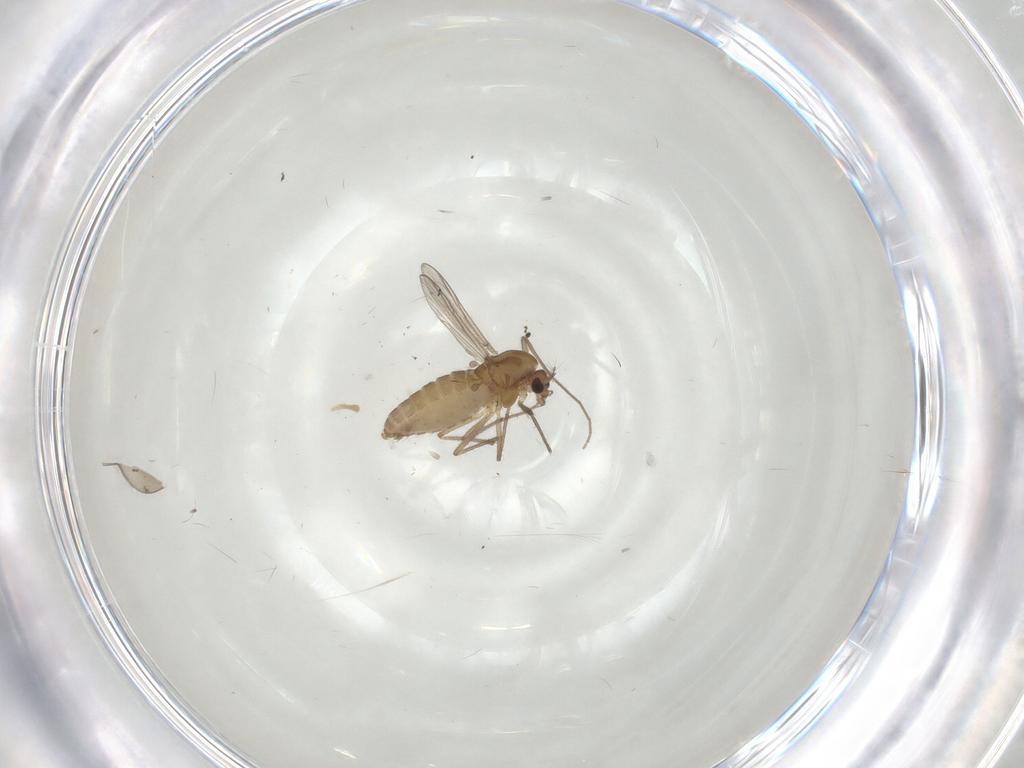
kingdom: Animalia
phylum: Arthropoda
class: Insecta
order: Diptera
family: Chironomidae
